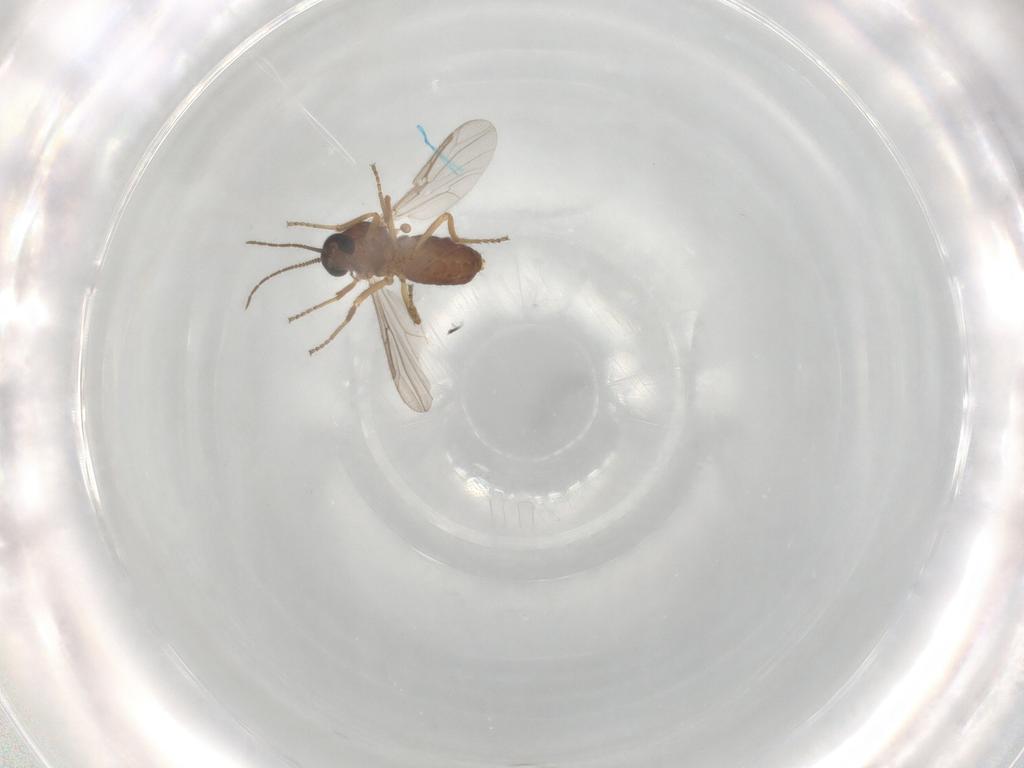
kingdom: Animalia
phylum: Arthropoda
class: Insecta
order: Diptera
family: Ceratopogonidae
